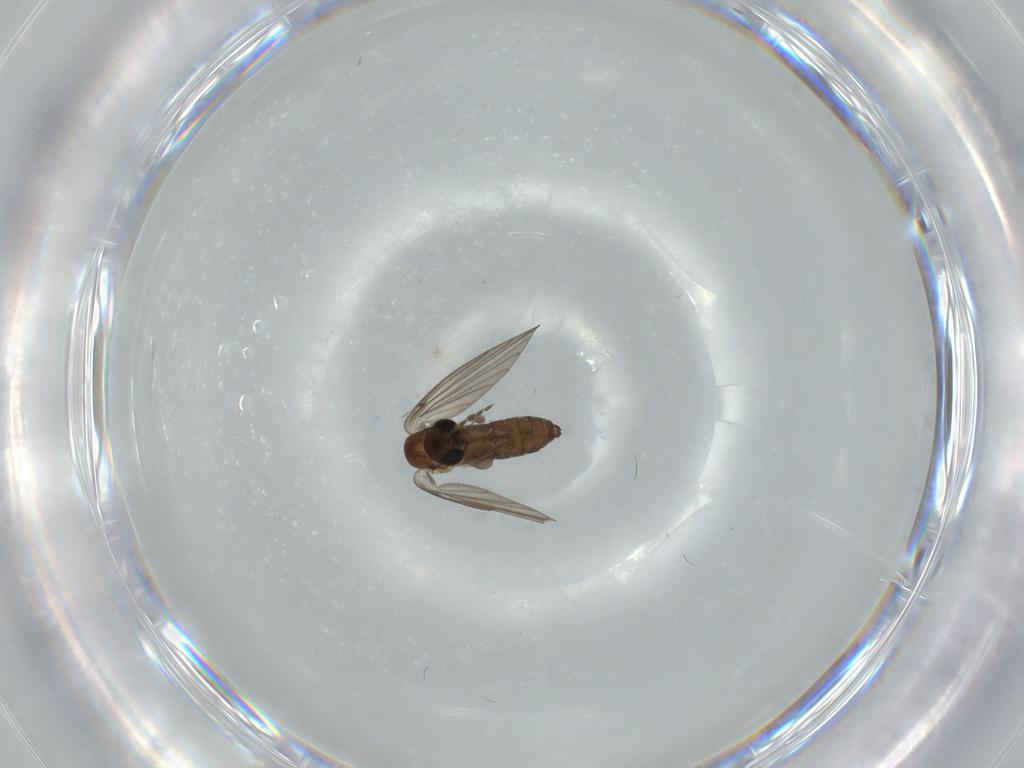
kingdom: Animalia
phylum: Arthropoda
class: Insecta
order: Diptera
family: Psychodidae
